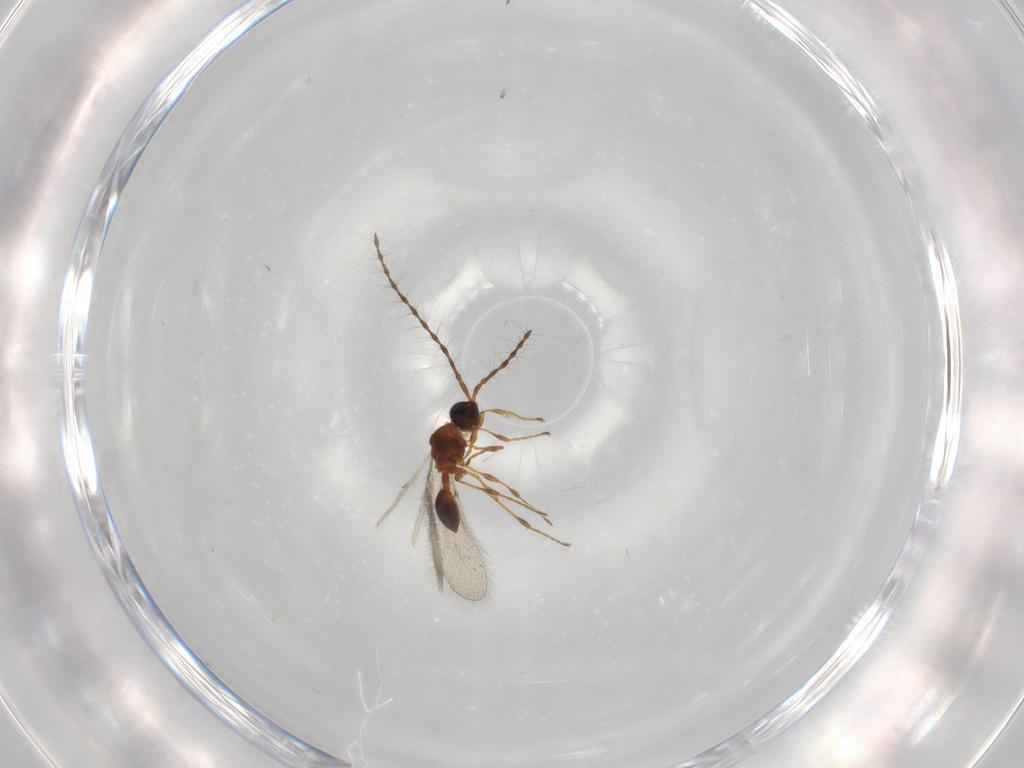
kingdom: Animalia
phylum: Arthropoda
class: Insecta
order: Hymenoptera
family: Diapriidae
